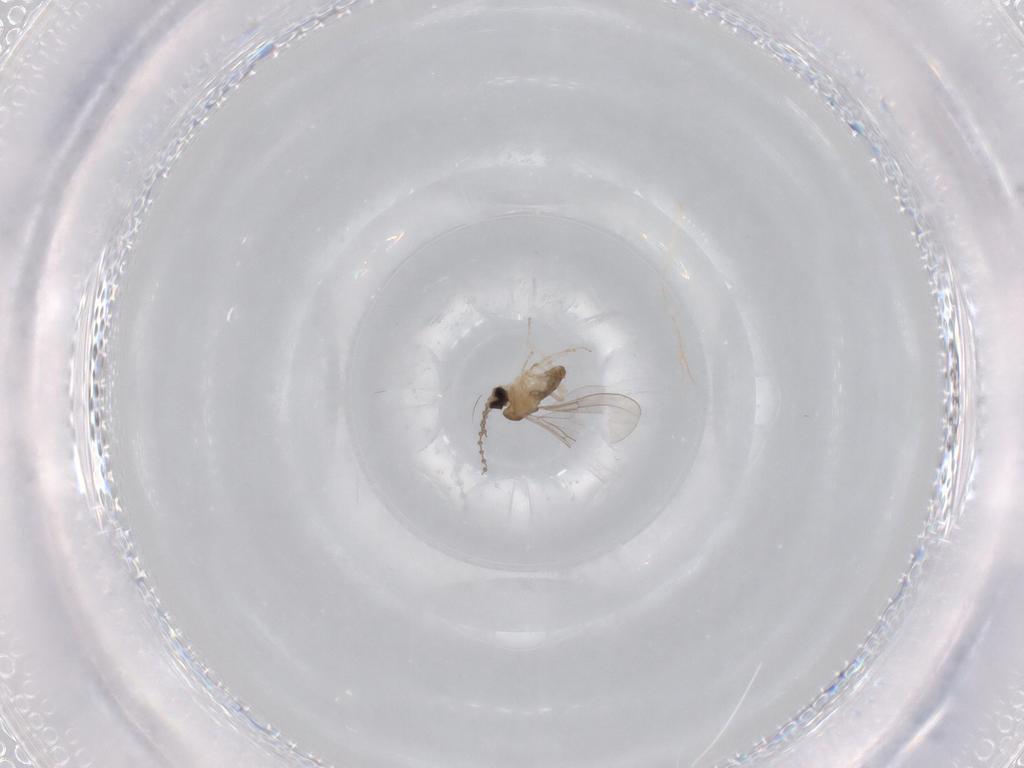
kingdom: Animalia
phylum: Arthropoda
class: Insecta
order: Diptera
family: Cecidomyiidae
